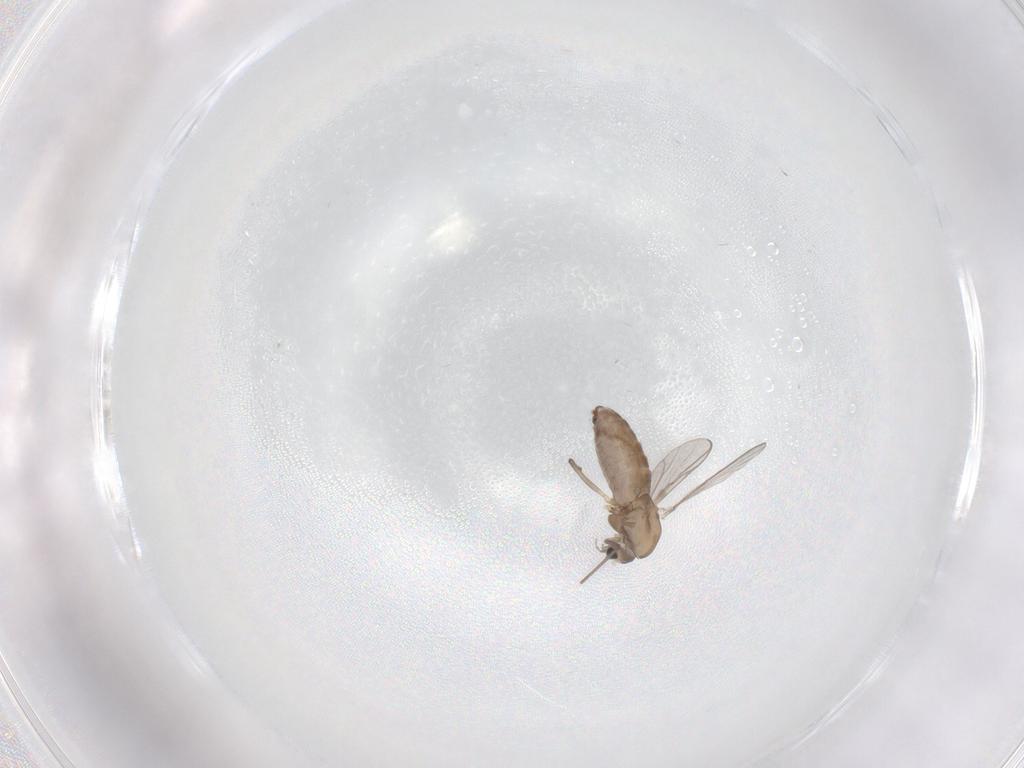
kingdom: Animalia
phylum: Arthropoda
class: Insecta
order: Diptera
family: Chironomidae
